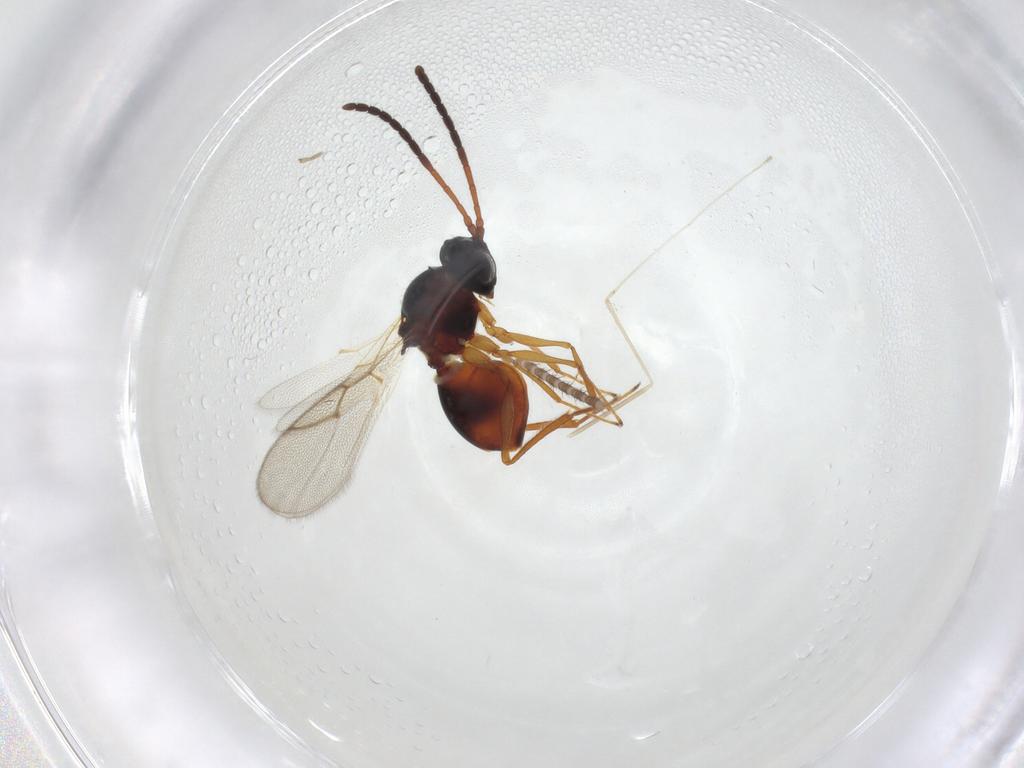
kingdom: Animalia
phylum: Arthropoda
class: Insecta
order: Hymenoptera
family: Figitidae
